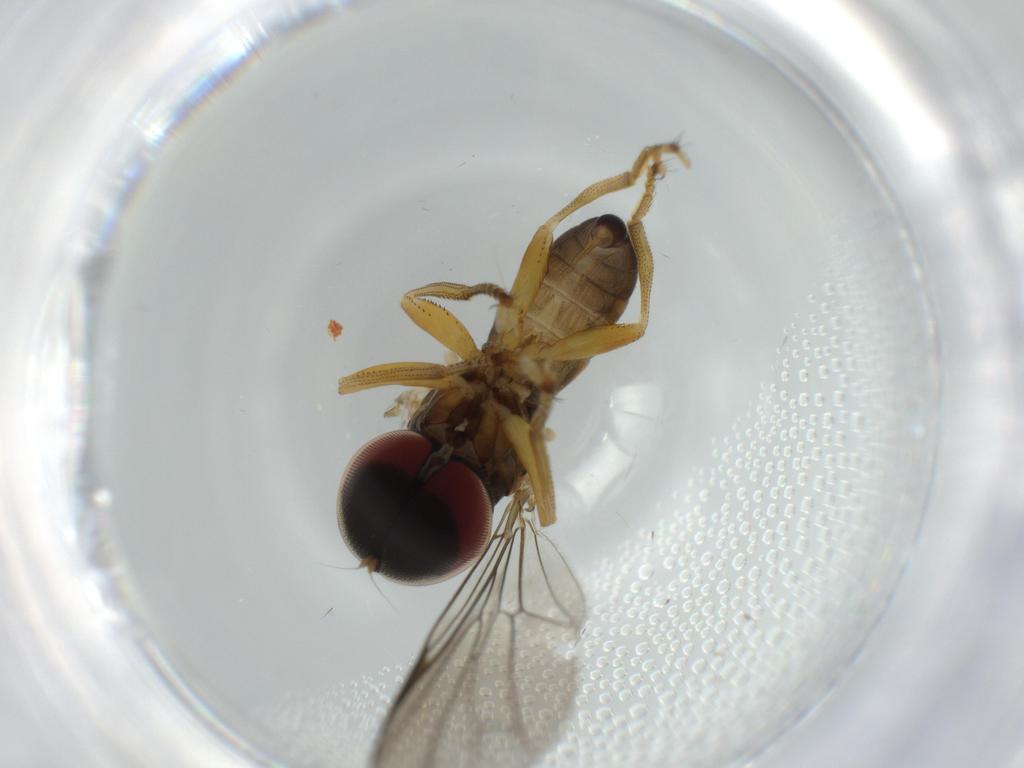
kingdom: Animalia
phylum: Arthropoda
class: Insecta
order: Diptera
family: Pipunculidae
